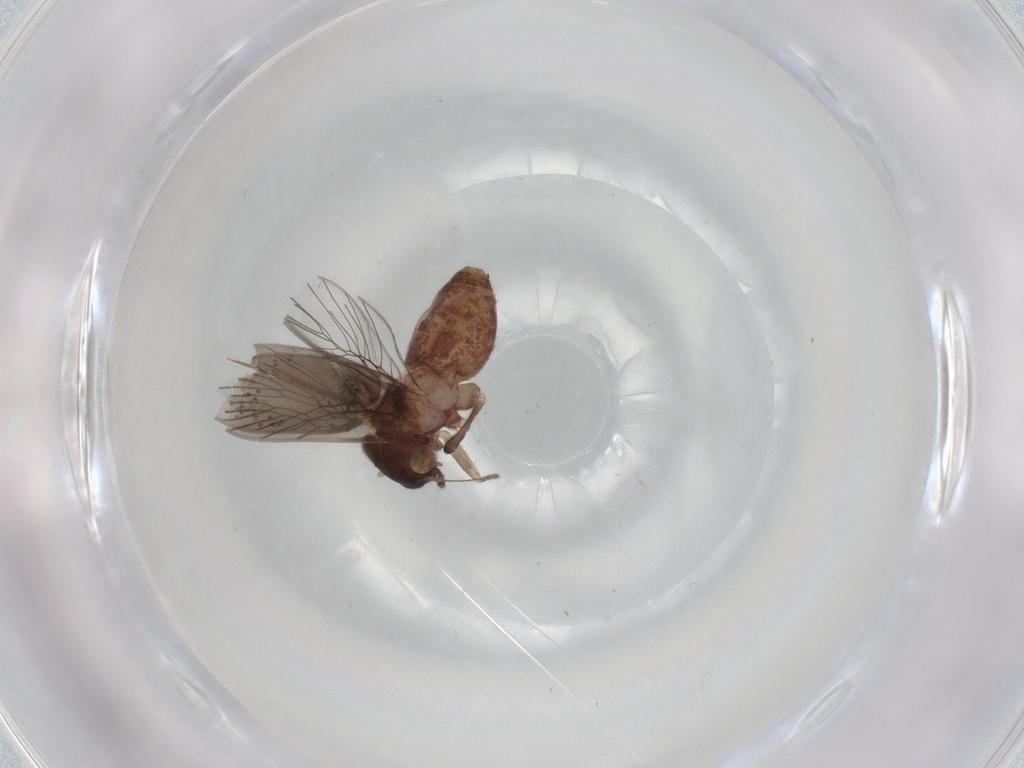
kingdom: Animalia
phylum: Arthropoda
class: Insecta
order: Psocodea
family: Lepidopsocidae
